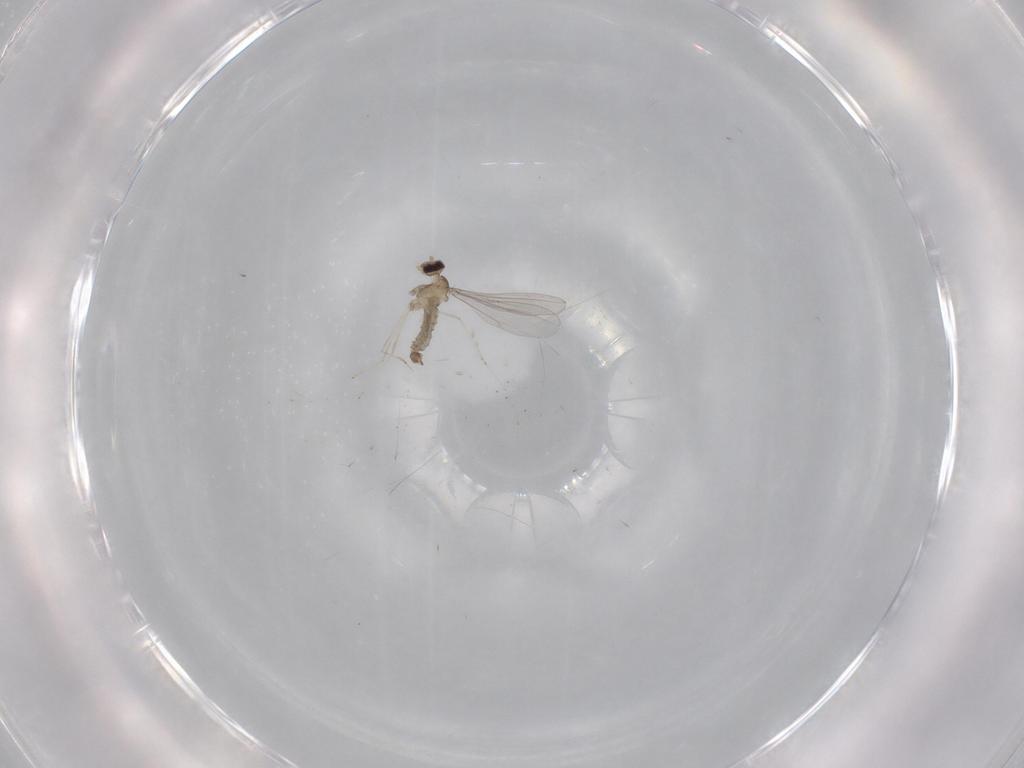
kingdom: Animalia
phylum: Arthropoda
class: Insecta
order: Diptera
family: Cecidomyiidae
